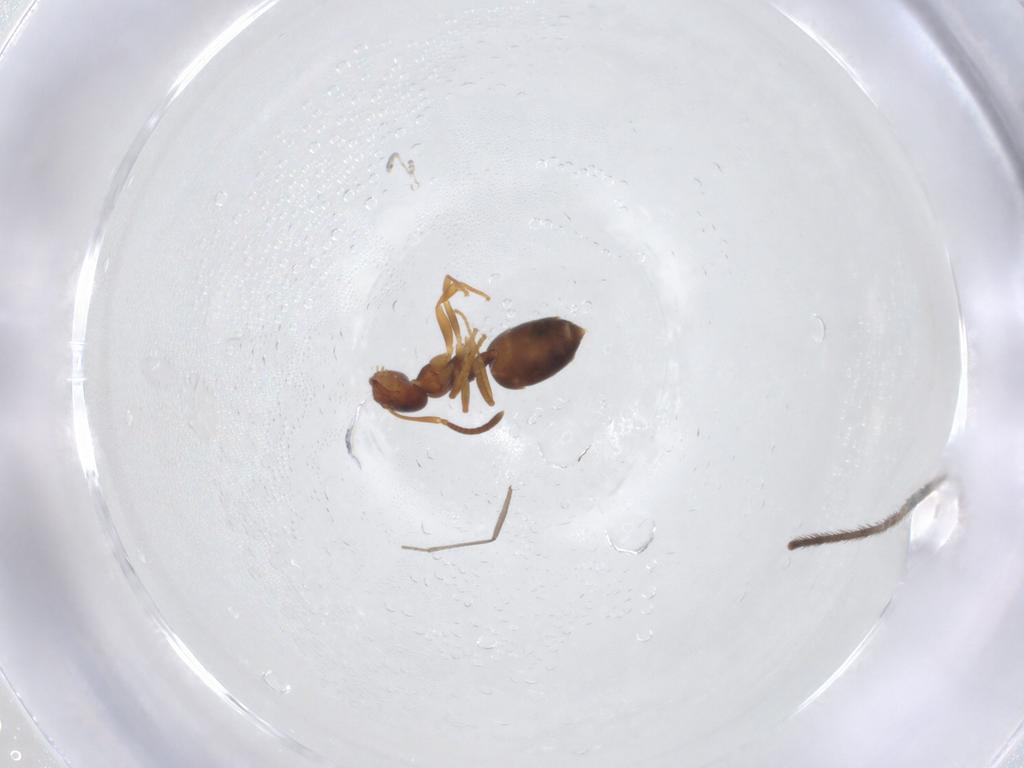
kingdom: Animalia
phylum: Arthropoda
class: Insecta
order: Hymenoptera
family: Formicidae
